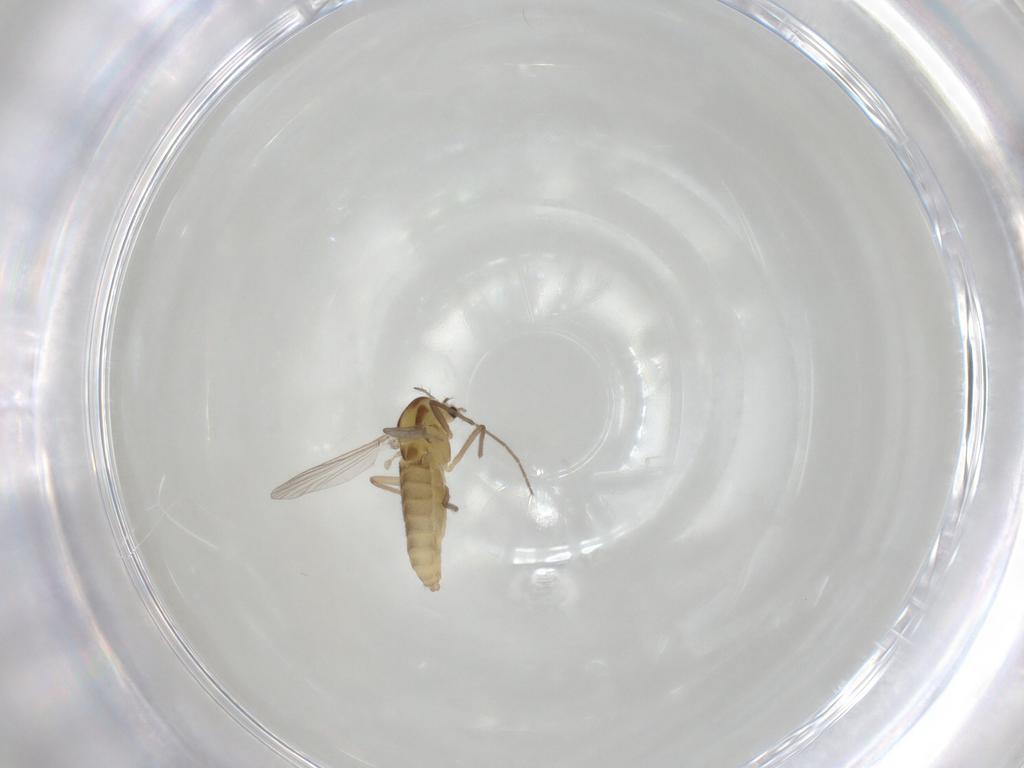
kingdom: Animalia
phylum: Arthropoda
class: Insecta
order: Diptera
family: Chironomidae
